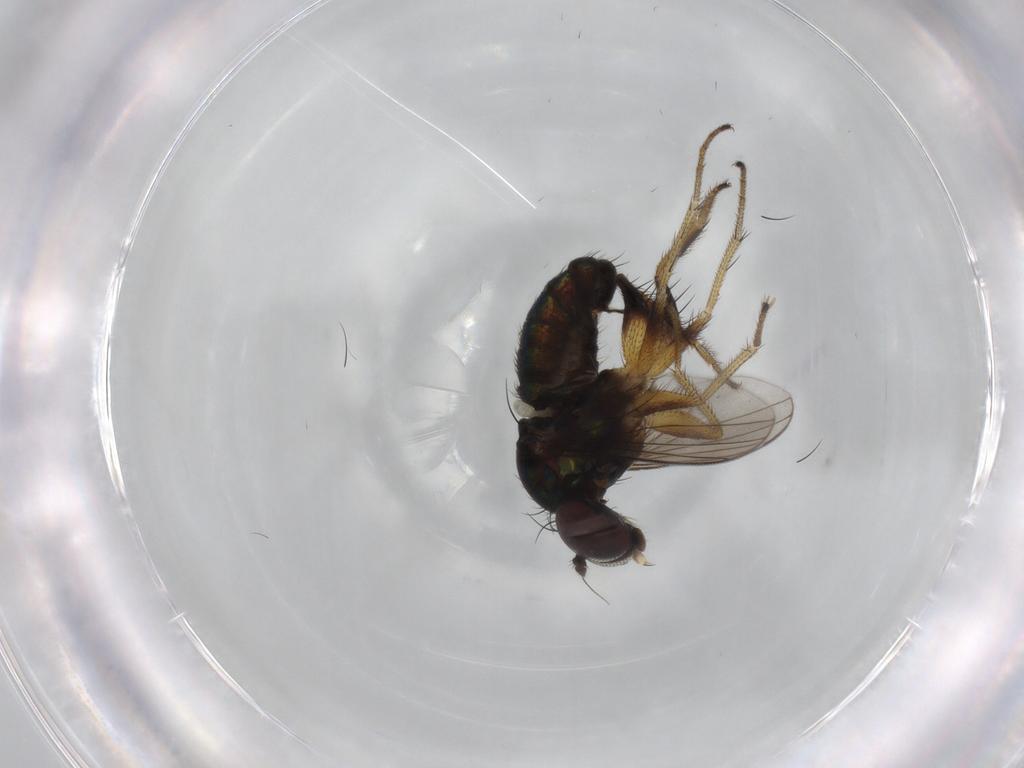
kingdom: Animalia
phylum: Arthropoda
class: Insecta
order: Diptera
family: Dolichopodidae
